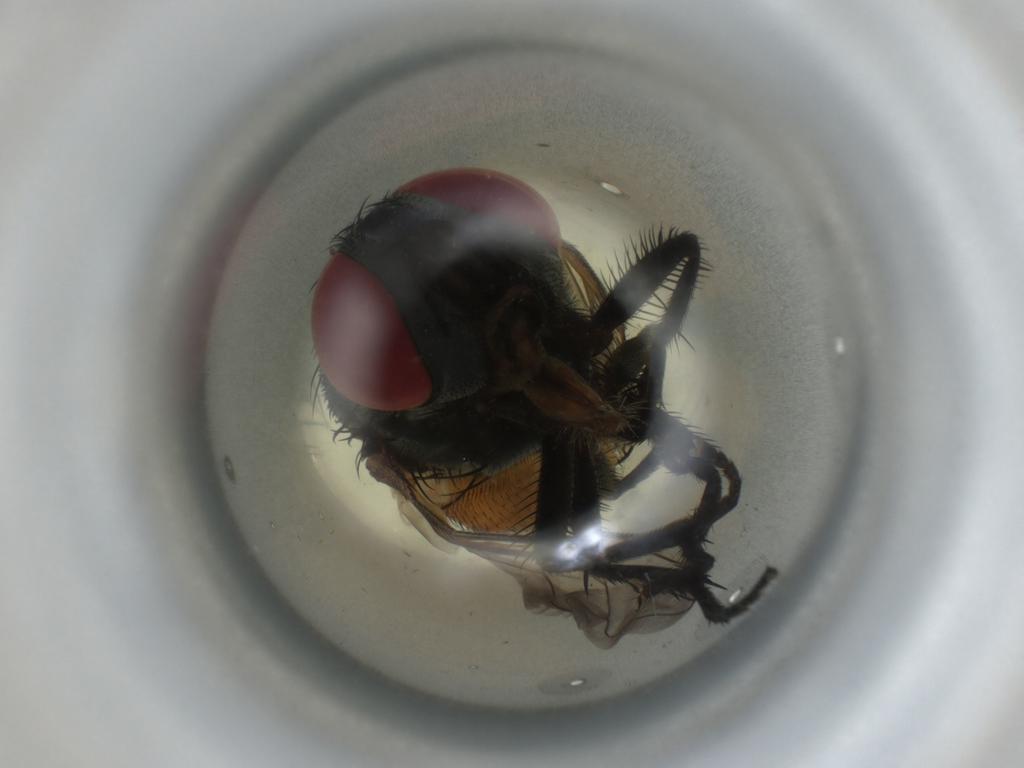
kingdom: Animalia
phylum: Arthropoda
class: Insecta
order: Diptera
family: Muscidae
